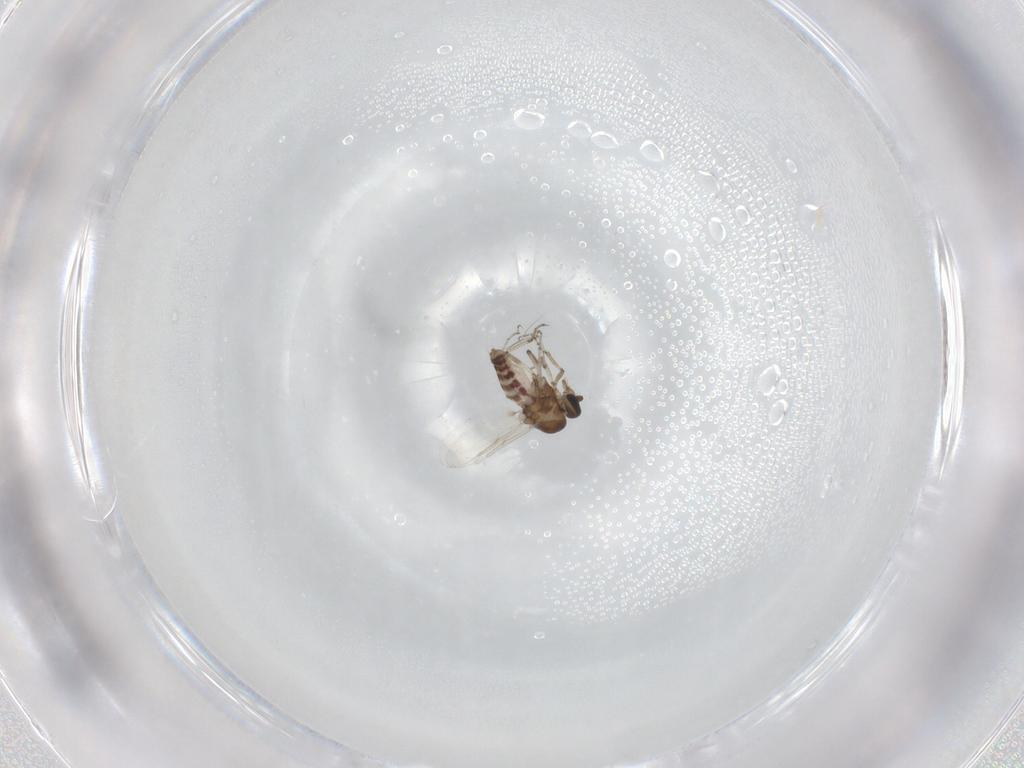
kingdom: Animalia
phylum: Arthropoda
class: Insecta
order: Diptera
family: Ceratopogonidae
